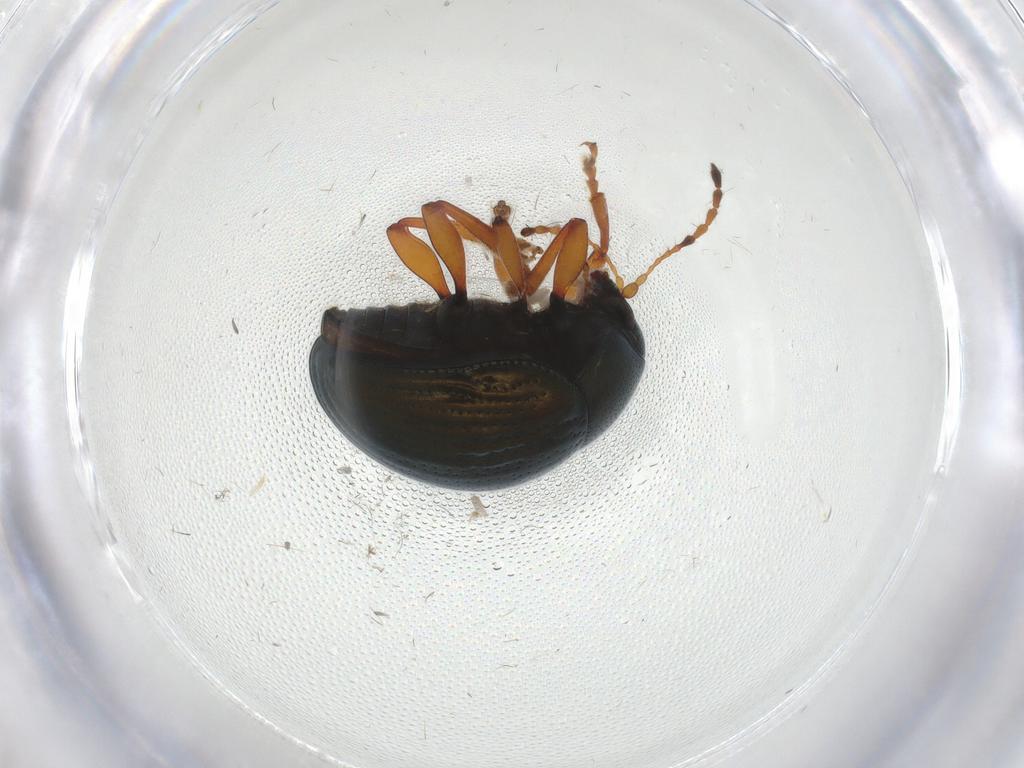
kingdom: Animalia
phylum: Arthropoda
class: Insecta
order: Coleoptera
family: Chrysomelidae
